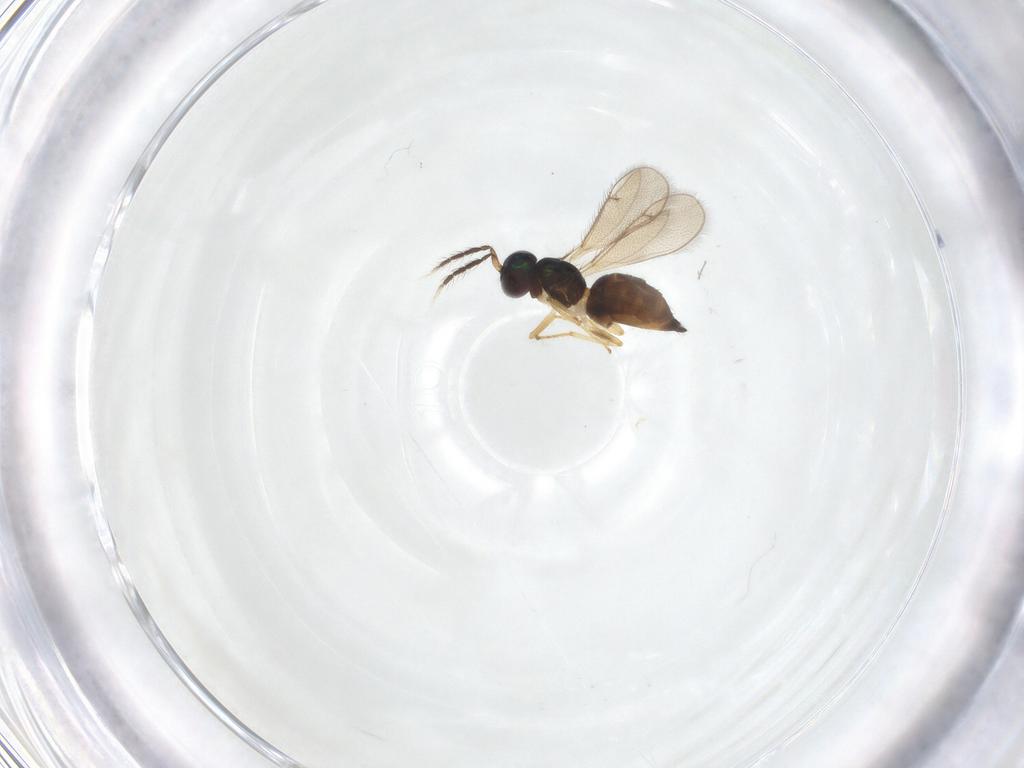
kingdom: Animalia
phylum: Arthropoda
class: Insecta
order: Hymenoptera
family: Eulophidae
